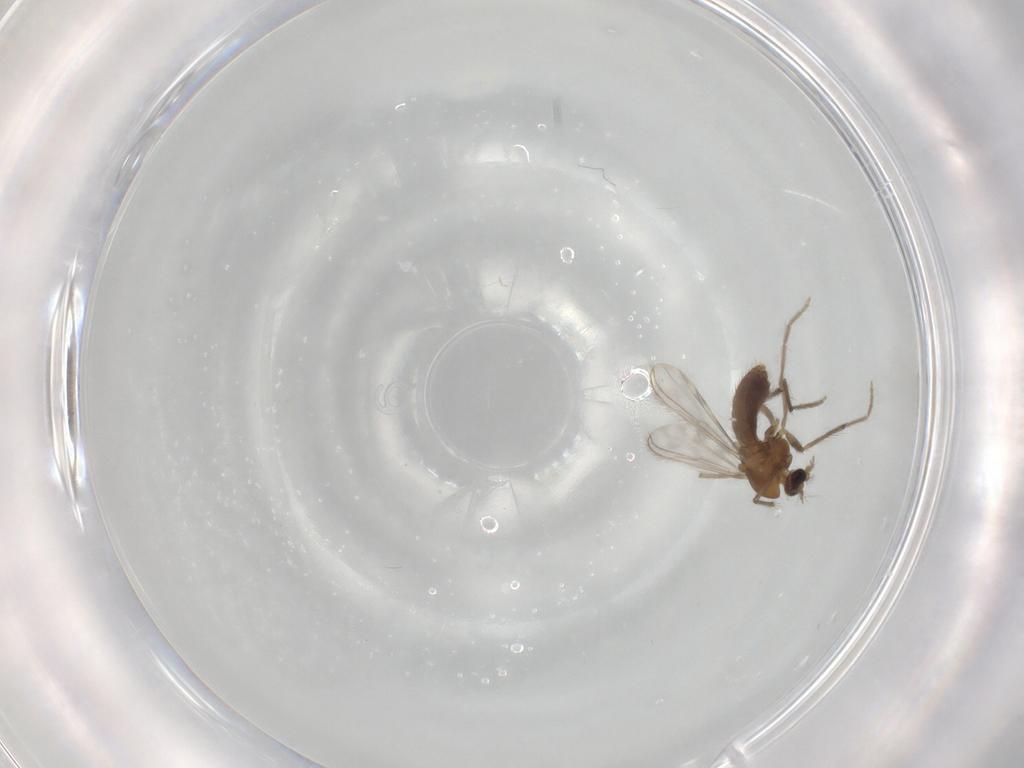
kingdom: Animalia
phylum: Arthropoda
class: Insecta
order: Diptera
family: Chironomidae
